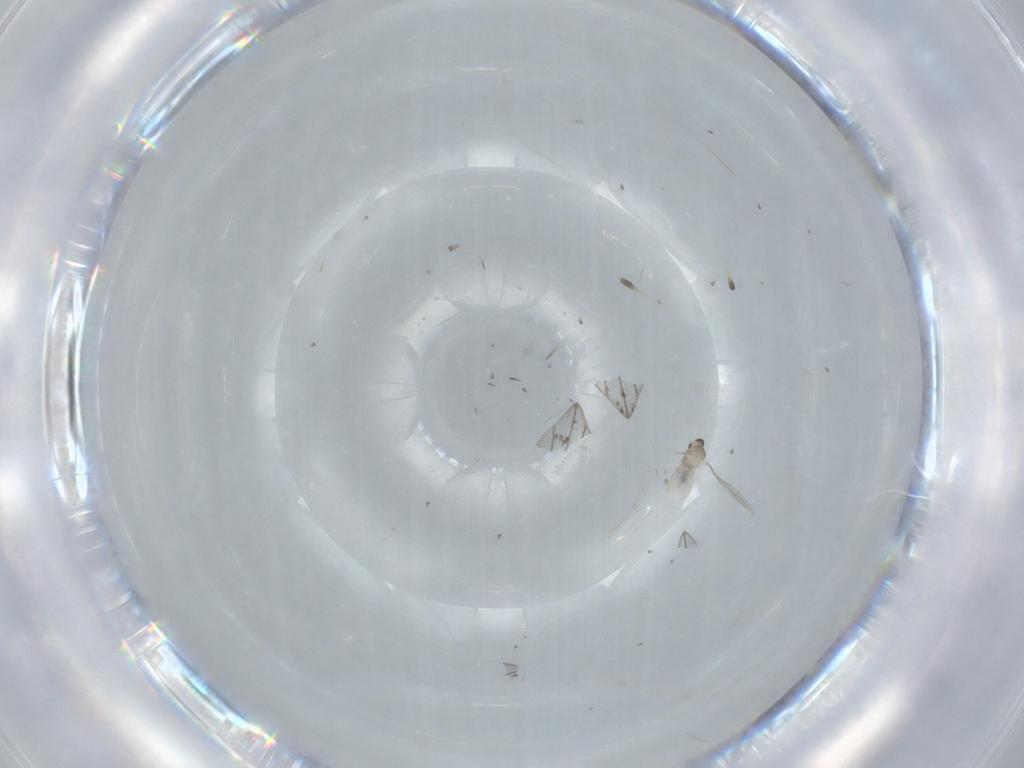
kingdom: Animalia
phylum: Arthropoda
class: Insecta
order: Diptera
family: Cecidomyiidae
